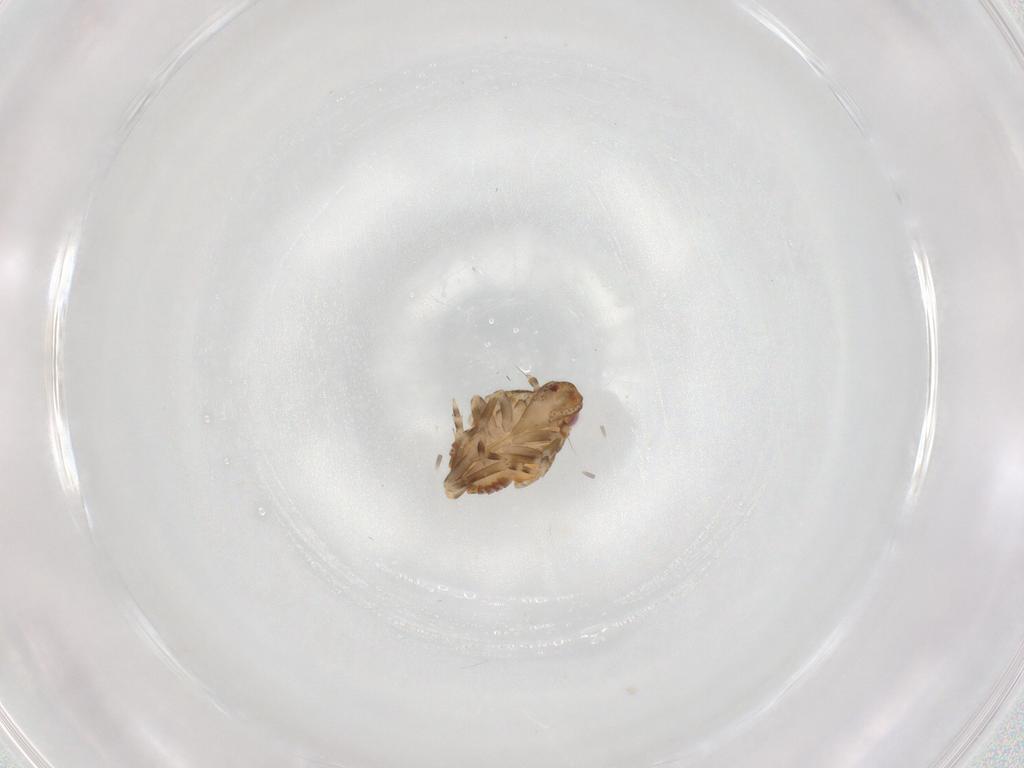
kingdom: Animalia
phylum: Arthropoda
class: Insecta
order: Hemiptera
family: Flatidae
